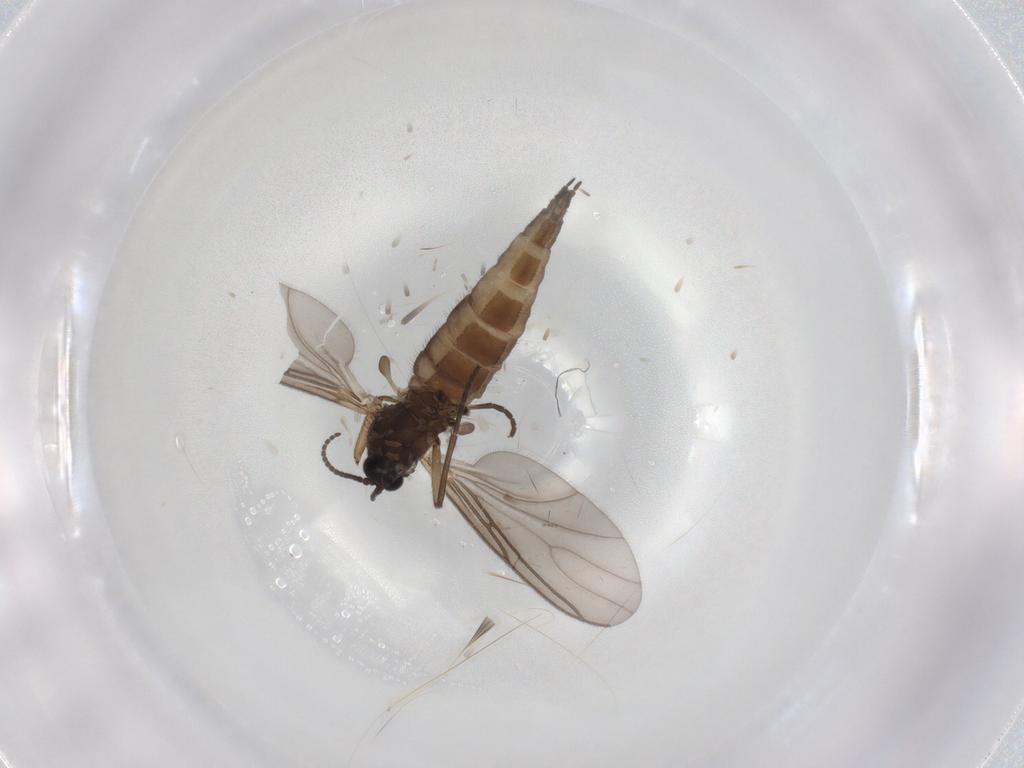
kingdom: Animalia
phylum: Arthropoda
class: Insecta
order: Diptera
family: Sciaridae
